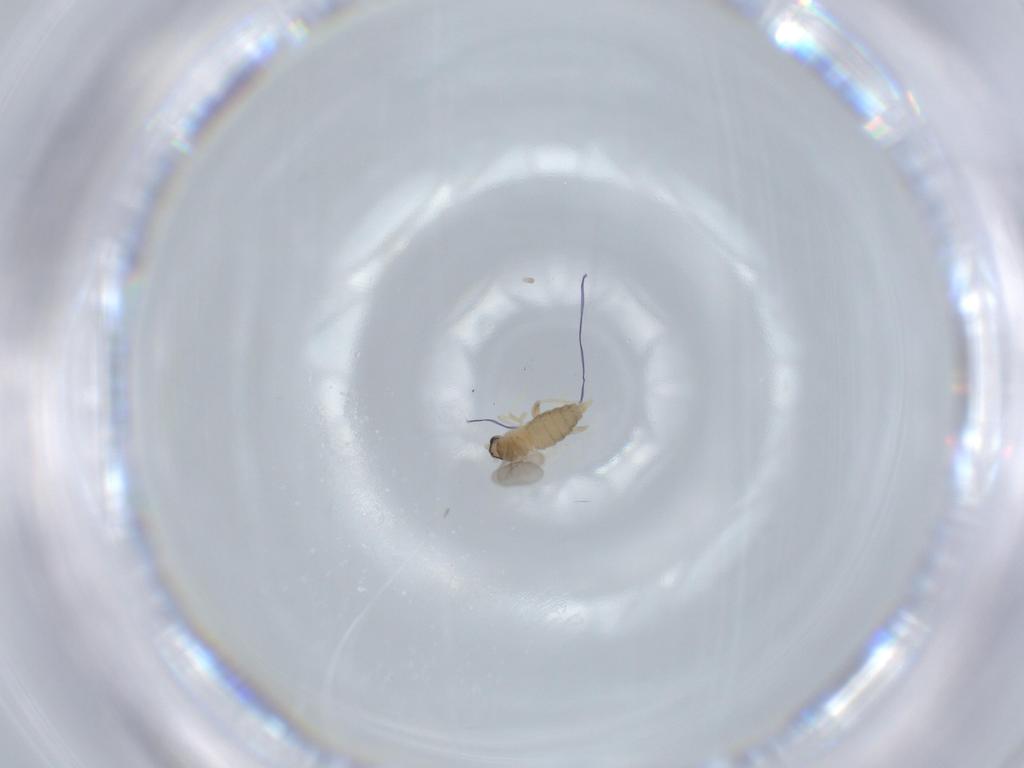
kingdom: Animalia
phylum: Arthropoda
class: Insecta
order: Diptera
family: Cecidomyiidae
